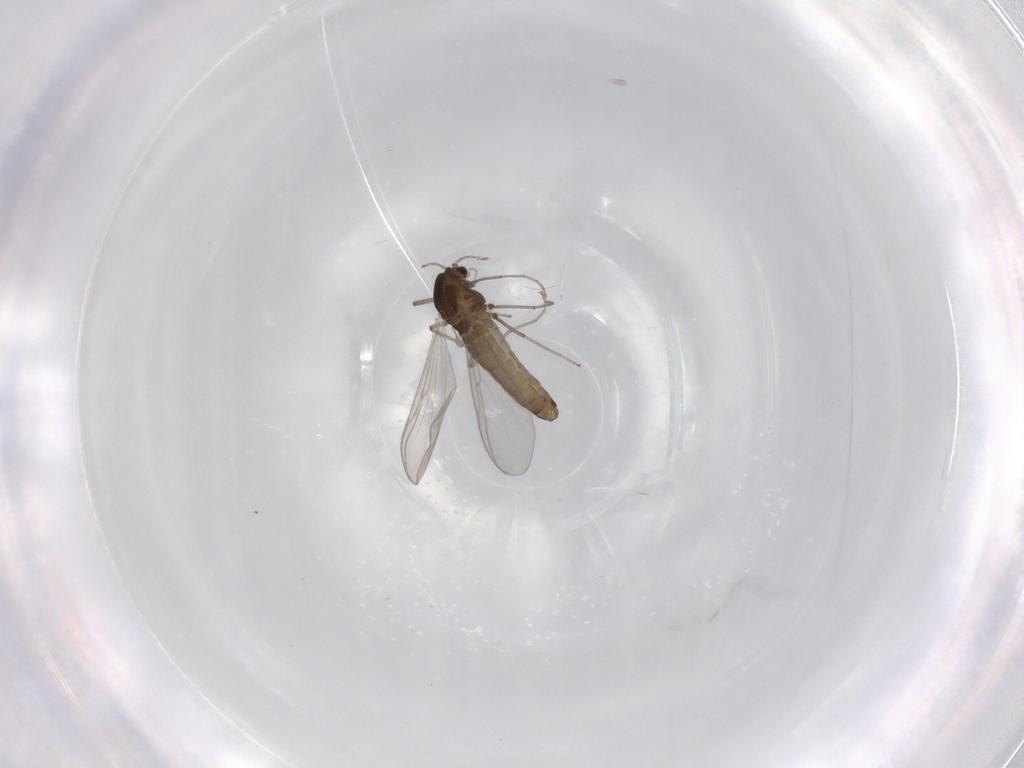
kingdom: Animalia
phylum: Arthropoda
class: Insecta
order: Diptera
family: Chironomidae
